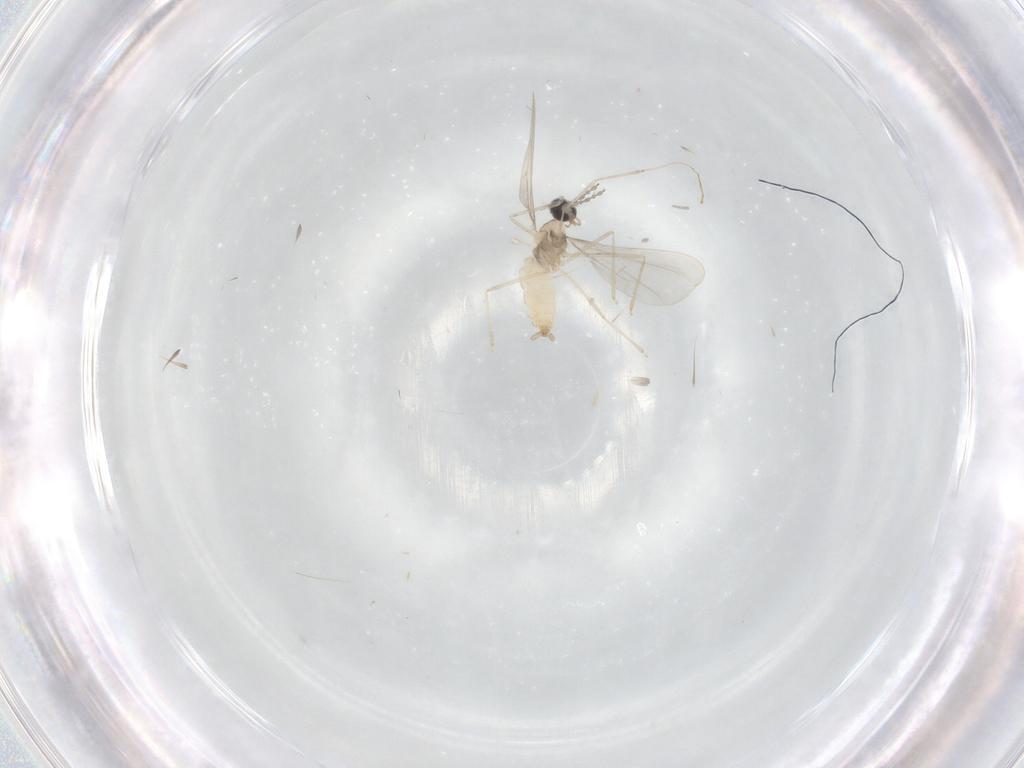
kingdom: Animalia
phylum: Arthropoda
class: Insecta
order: Diptera
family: Cecidomyiidae
